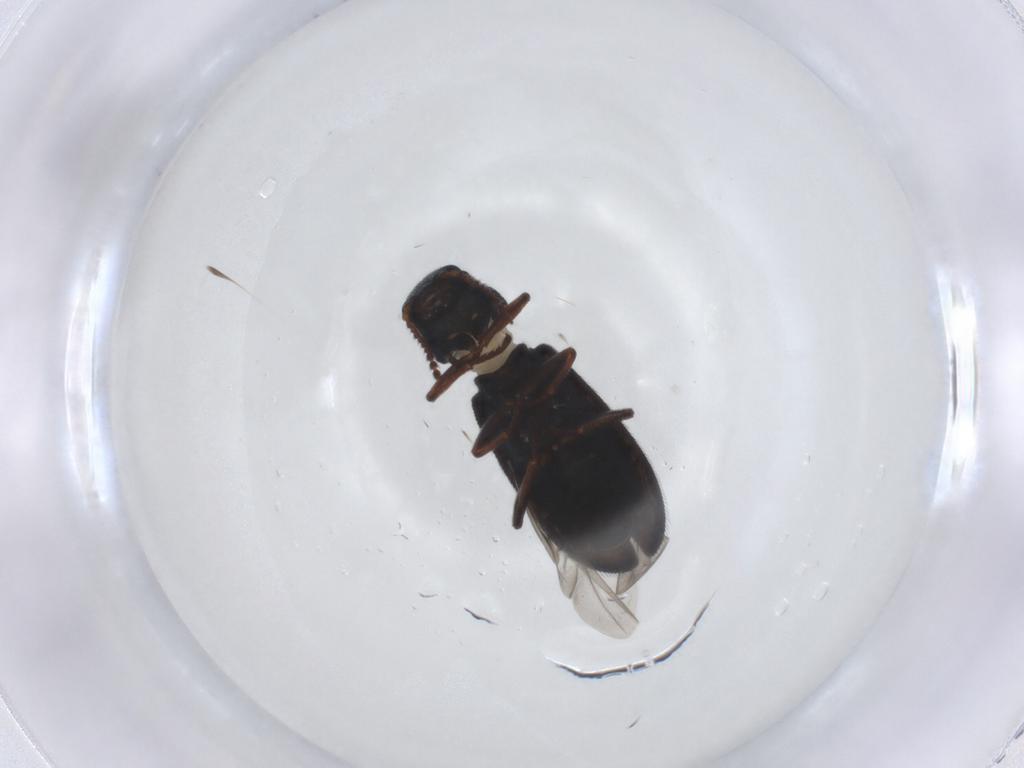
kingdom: Animalia
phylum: Arthropoda
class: Insecta
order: Coleoptera
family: Melyridae
